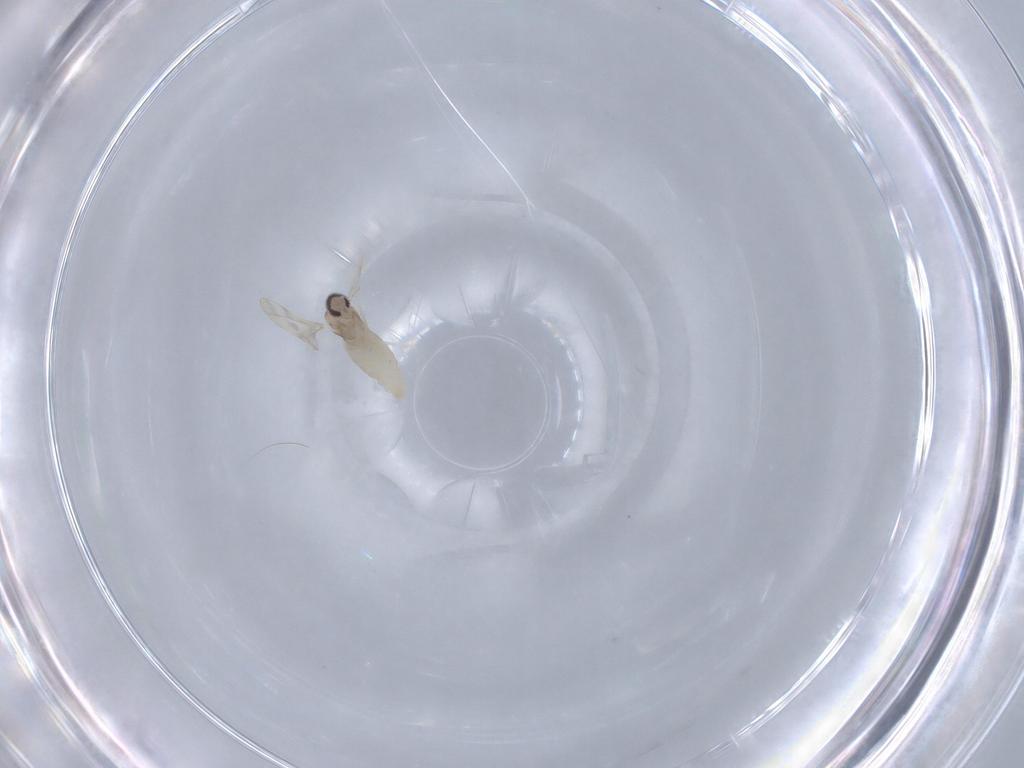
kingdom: Animalia
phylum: Arthropoda
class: Insecta
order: Diptera
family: Cecidomyiidae
